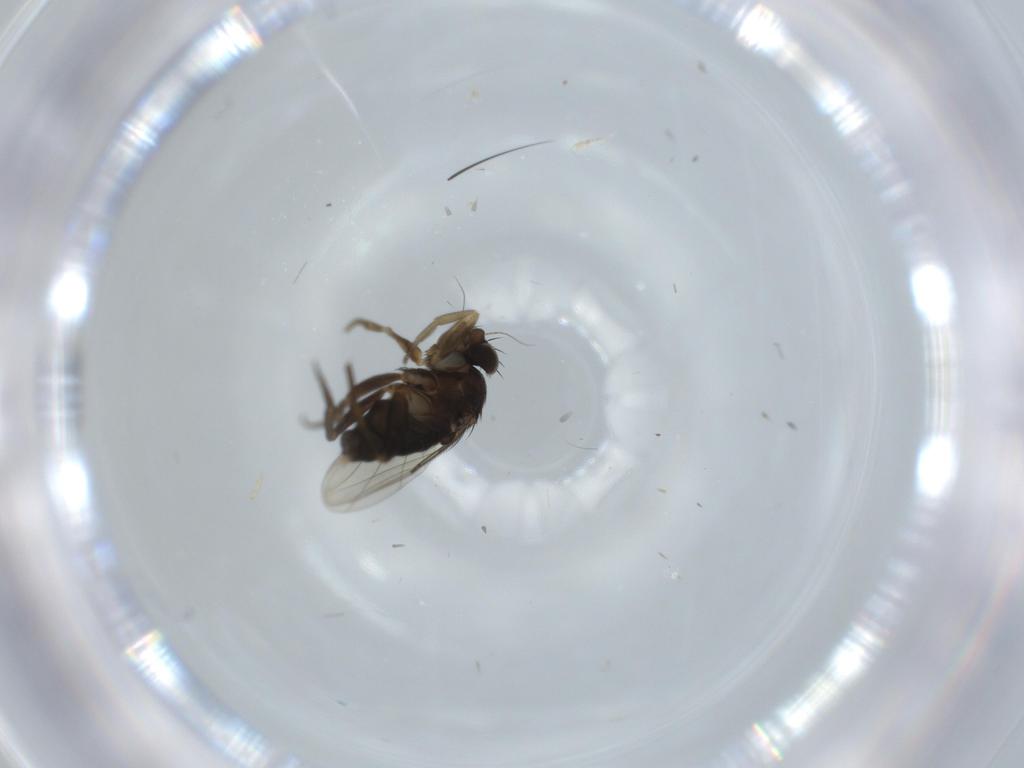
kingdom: Animalia
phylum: Arthropoda
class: Insecta
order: Diptera
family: Phoridae
